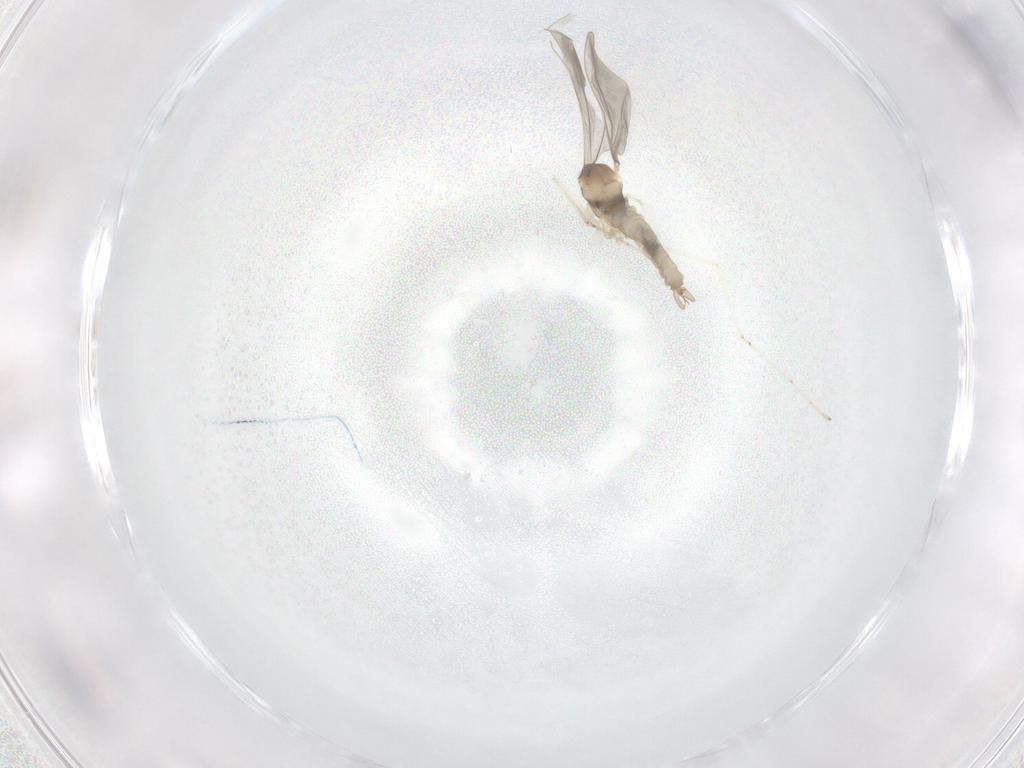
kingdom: Animalia
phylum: Arthropoda
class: Insecta
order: Diptera
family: Cecidomyiidae
